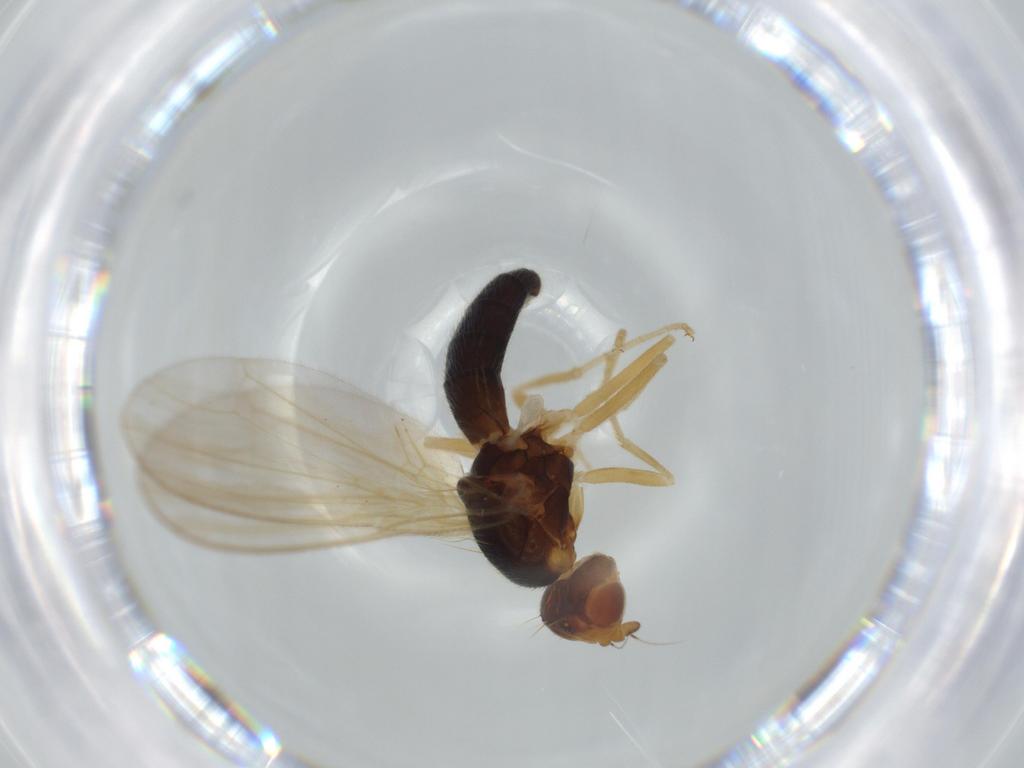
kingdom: Animalia
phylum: Arthropoda
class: Insecta
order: Diptera
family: Psilidae
